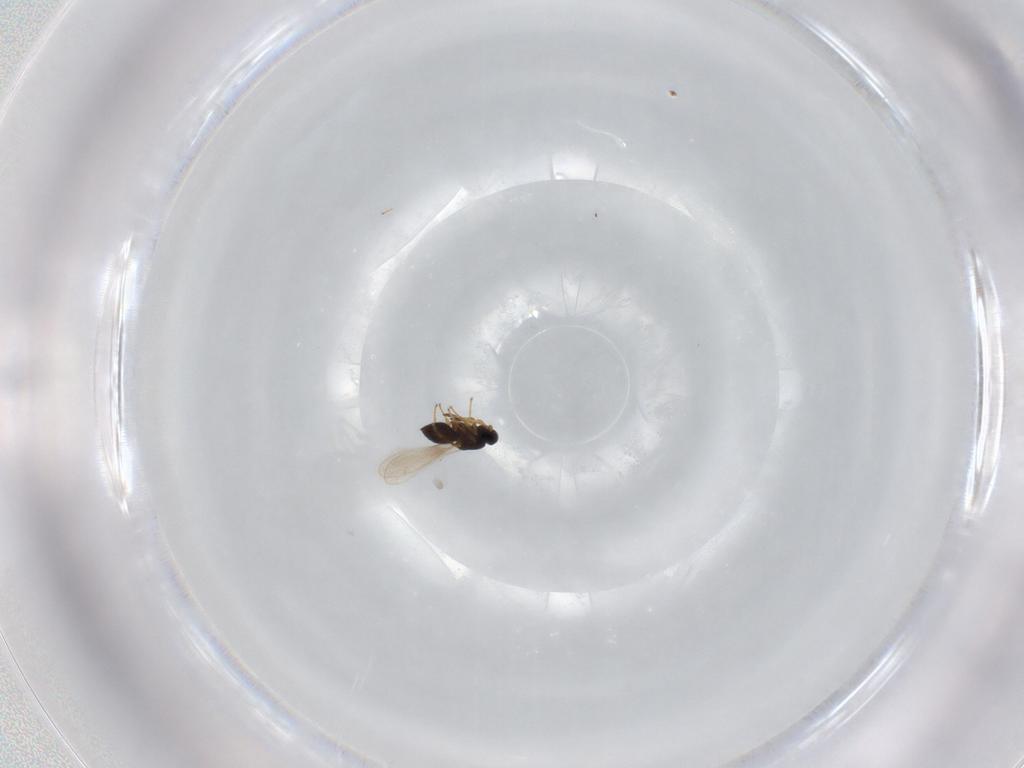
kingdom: Animalia
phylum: Arthropoda
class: Insecta
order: Hymenoptera
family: Platygastridae
